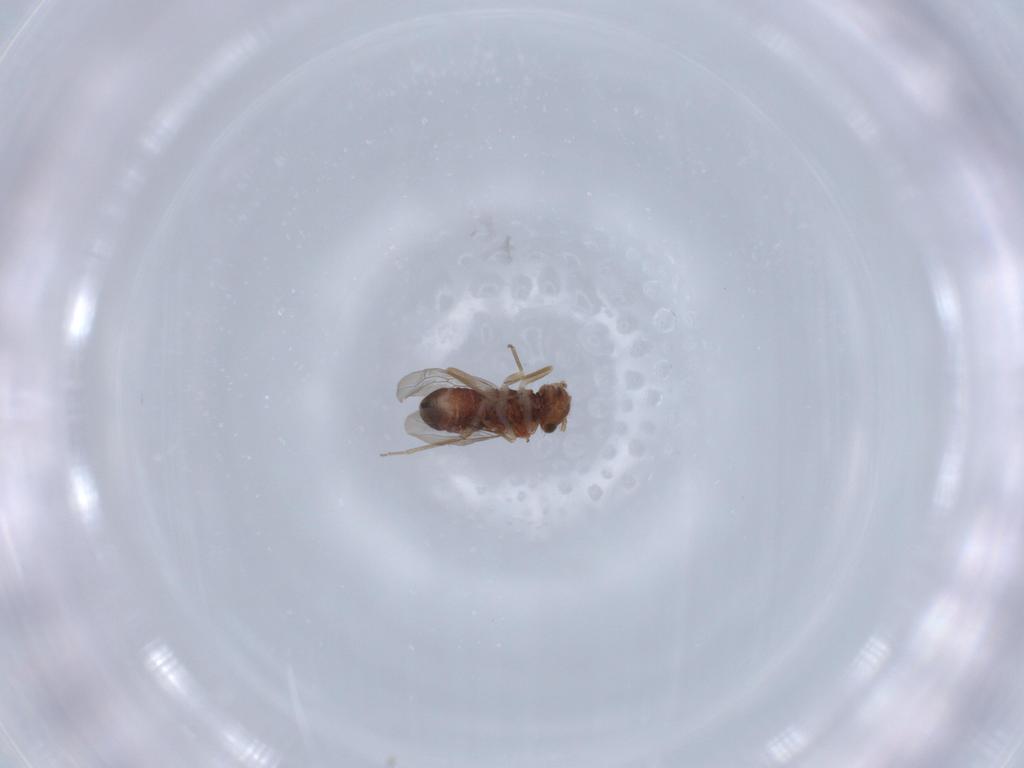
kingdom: Animalia
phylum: Arthropoda
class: Insecta
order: Psocodea
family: Ectopsocidae
